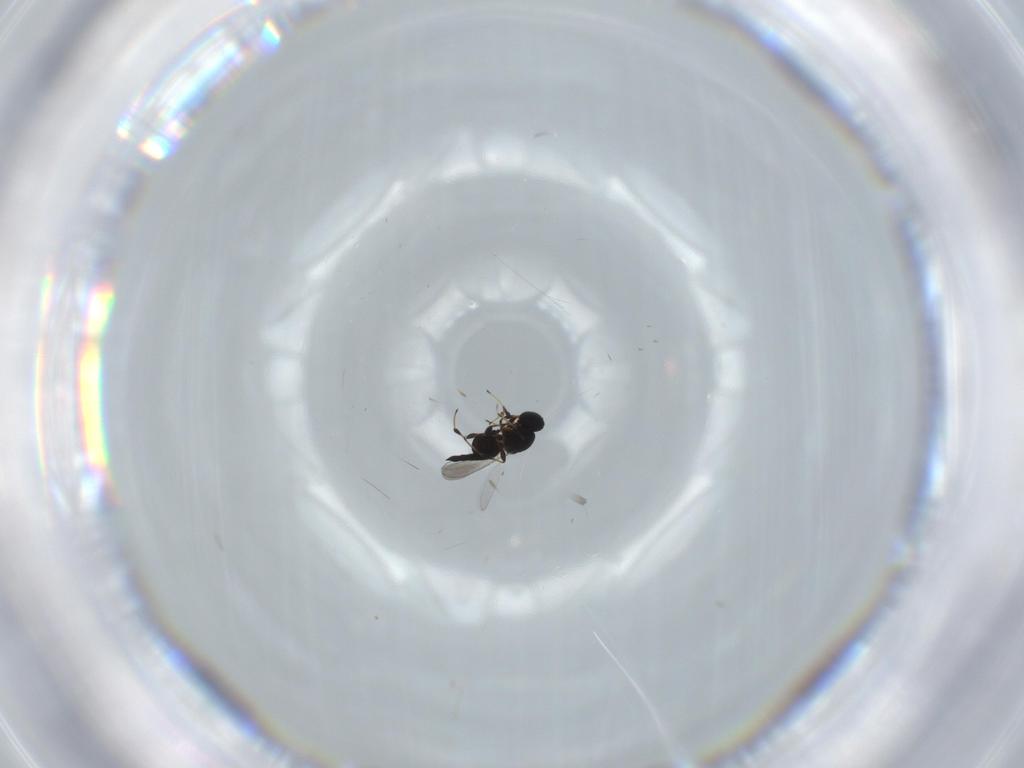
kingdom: Animalia
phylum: Arthropoda
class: Insecta
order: Hymenoptera
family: Platygastridae
